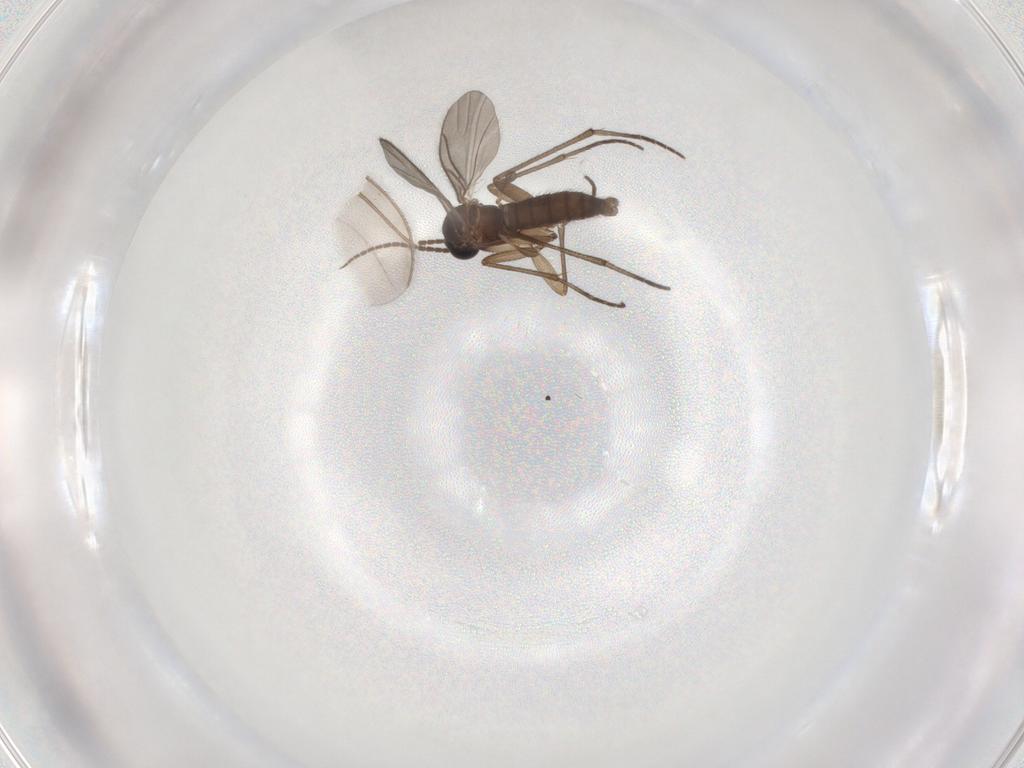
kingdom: Animalia
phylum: Arthropoda
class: Insecta
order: Diptera
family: Sciaridae
